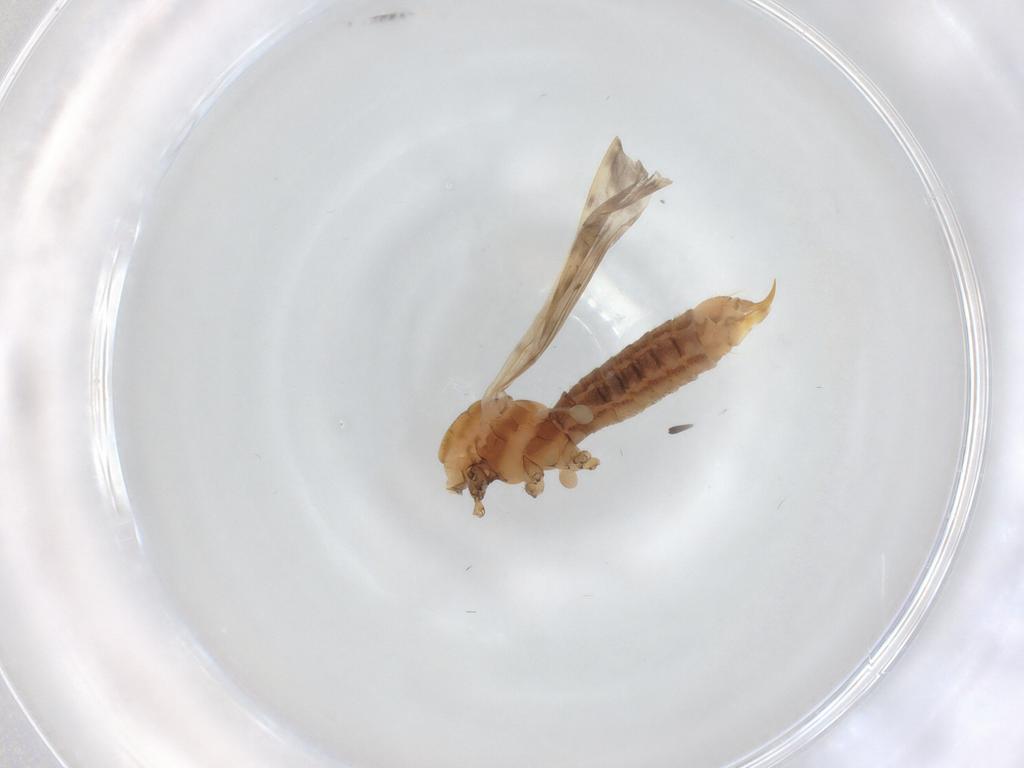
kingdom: Animalia
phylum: Arthropoda
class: Insecta
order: Diptera
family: Limoniidae
